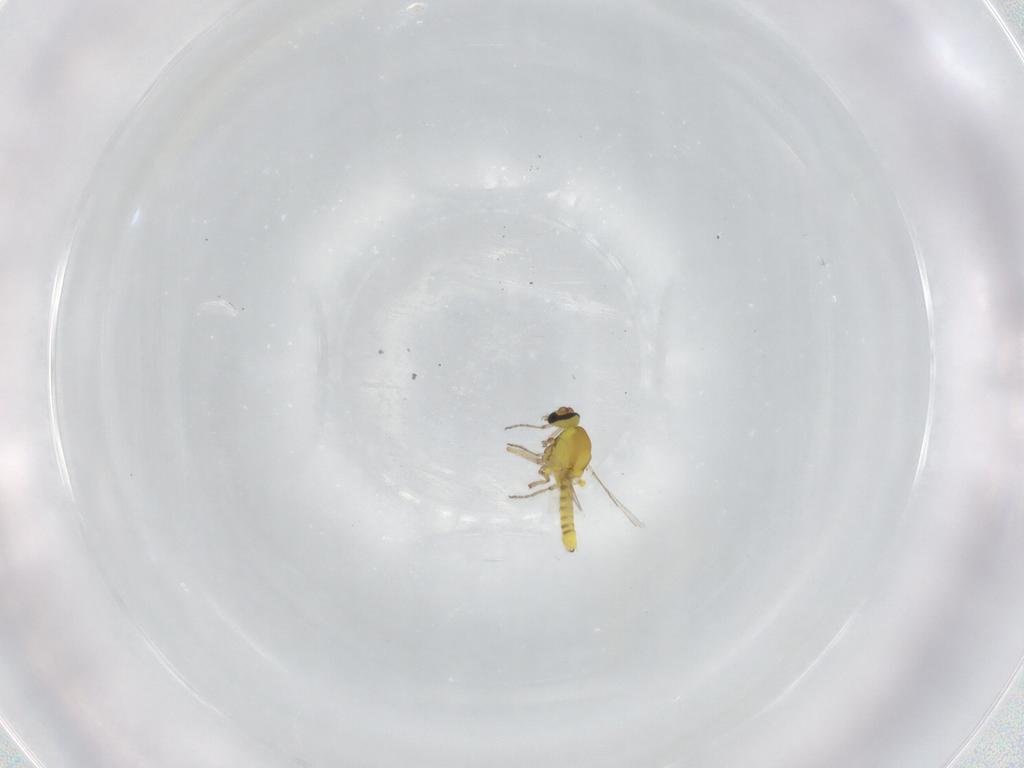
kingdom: Animalia
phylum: Arthropoda
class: Insecta
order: Diptera
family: Ceratopogonidae
